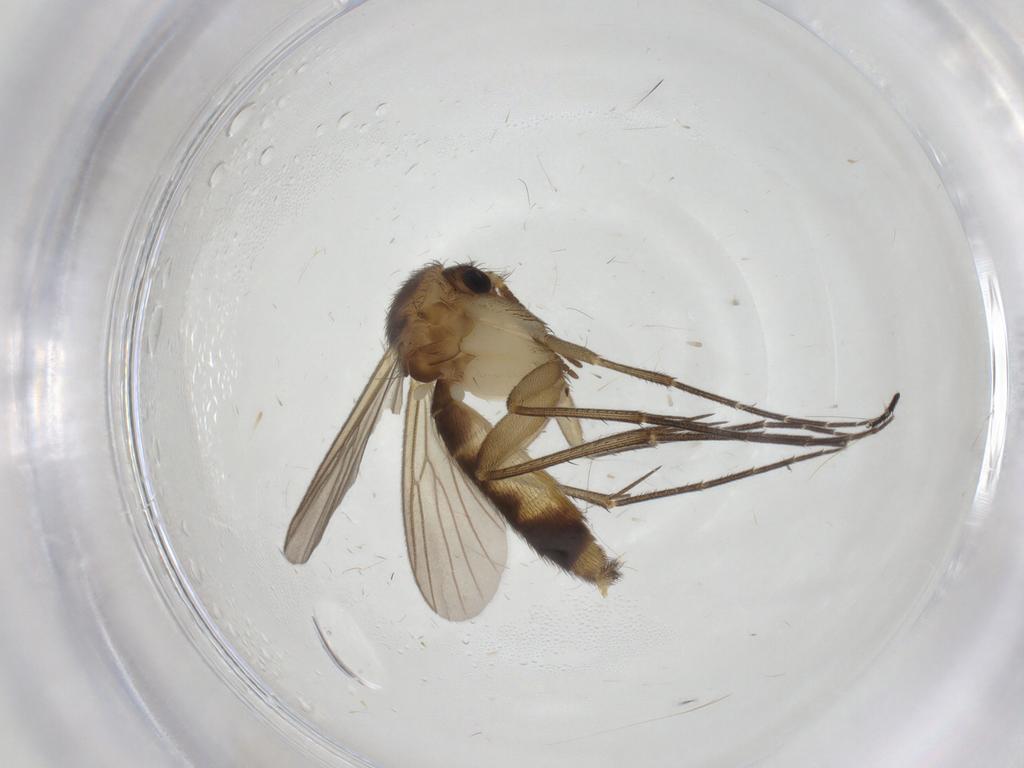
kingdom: Animalia
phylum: Arthropoda
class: Insecta
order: Diptera
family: Mycetophilidae
